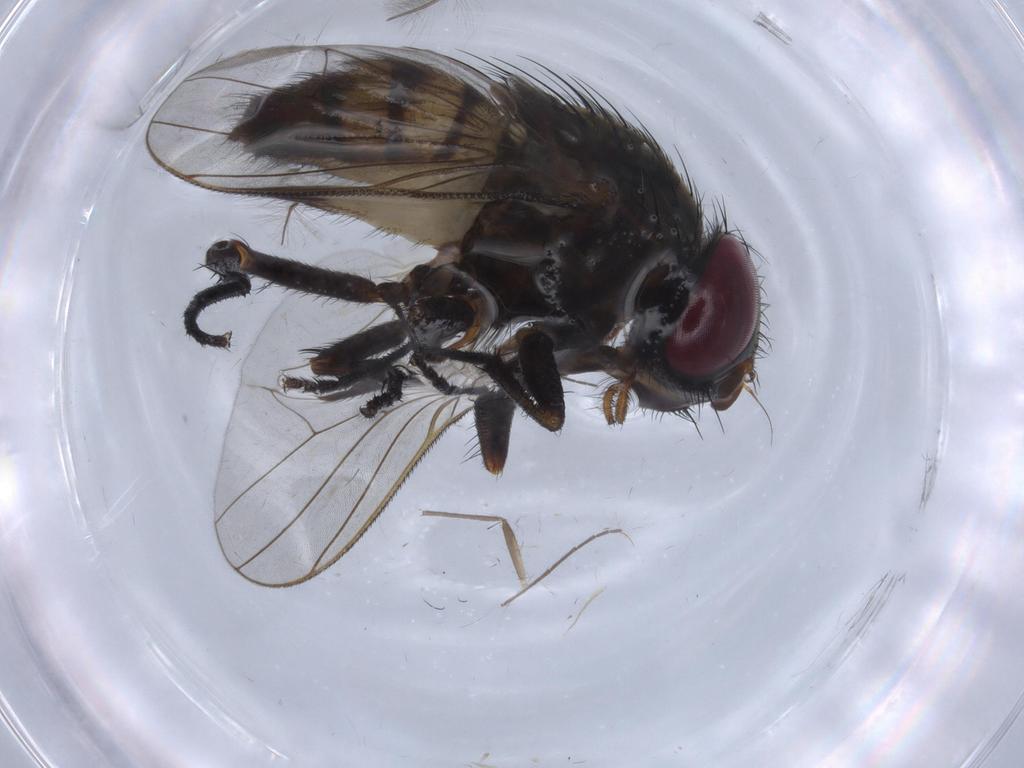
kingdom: Animalia
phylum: Arthropoda
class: Insecta
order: Diptera
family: Fannia
